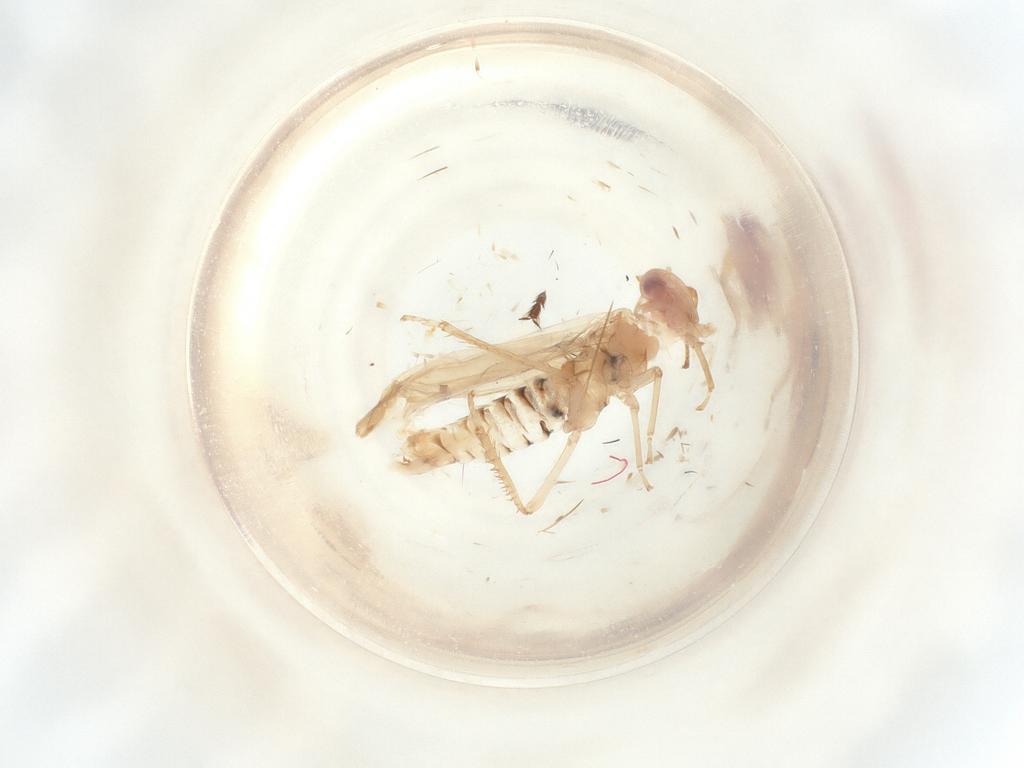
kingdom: Animalia
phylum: Arthropoda
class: Insecta
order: Hemiptera
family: Cicadellidae
